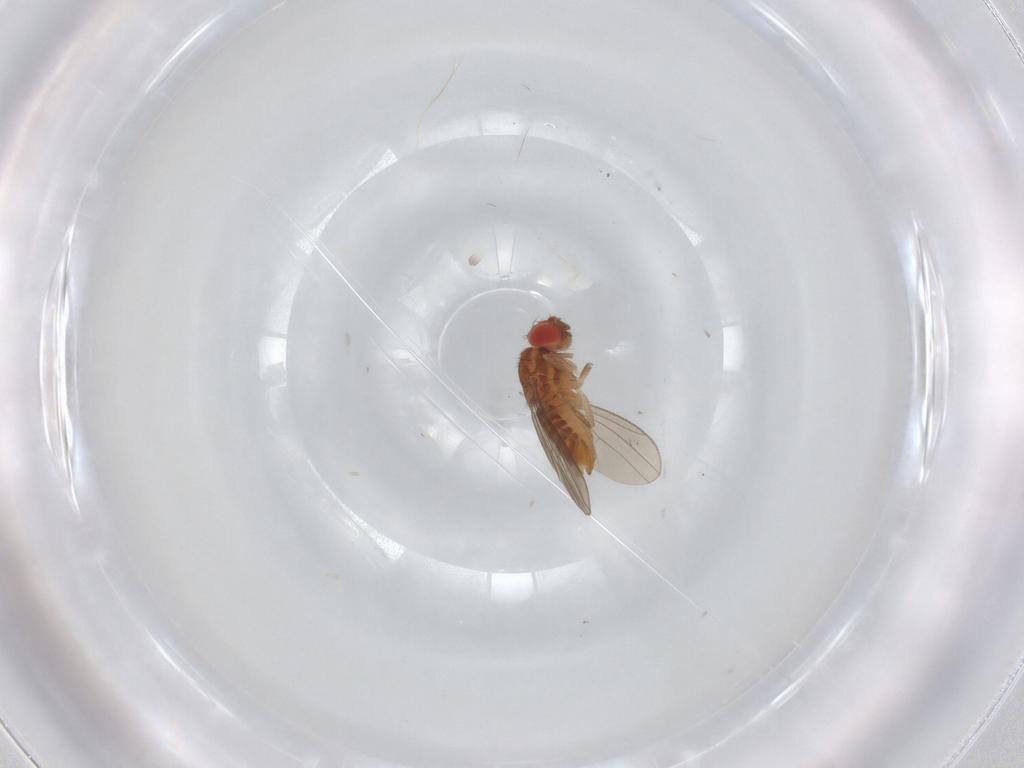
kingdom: Animalia
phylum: Arthropoda
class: Insecta
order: Diptera
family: Drosophilidae
